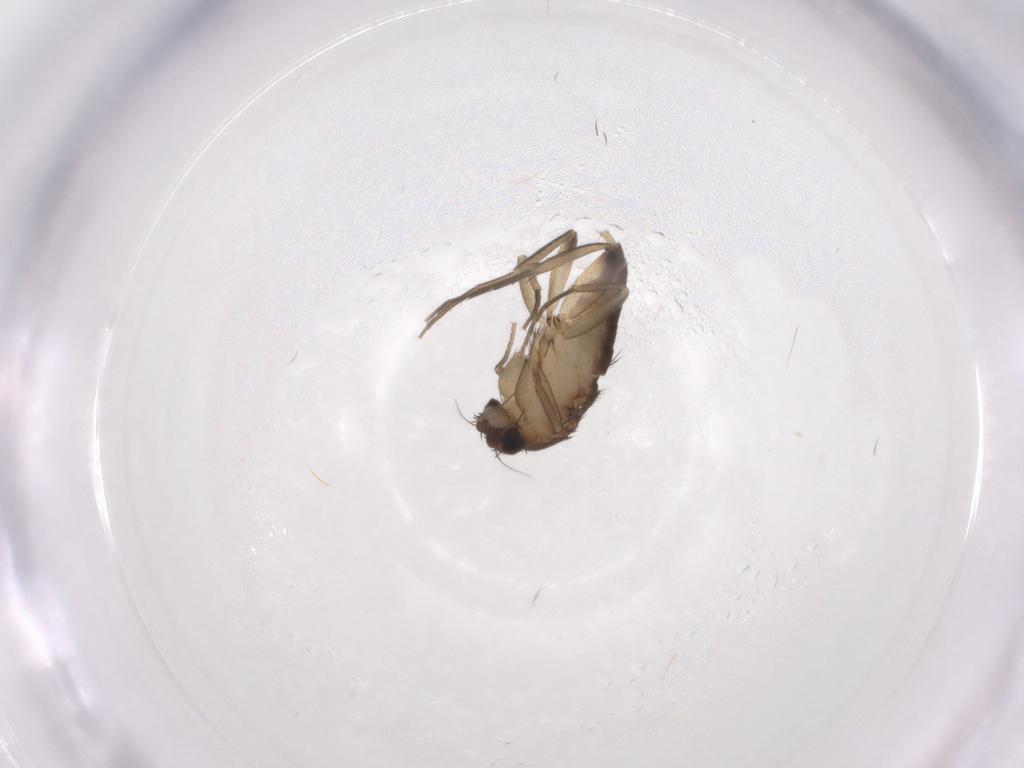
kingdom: Animalia
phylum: Arthropoda
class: Insecta
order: Diptera
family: Phoridae
